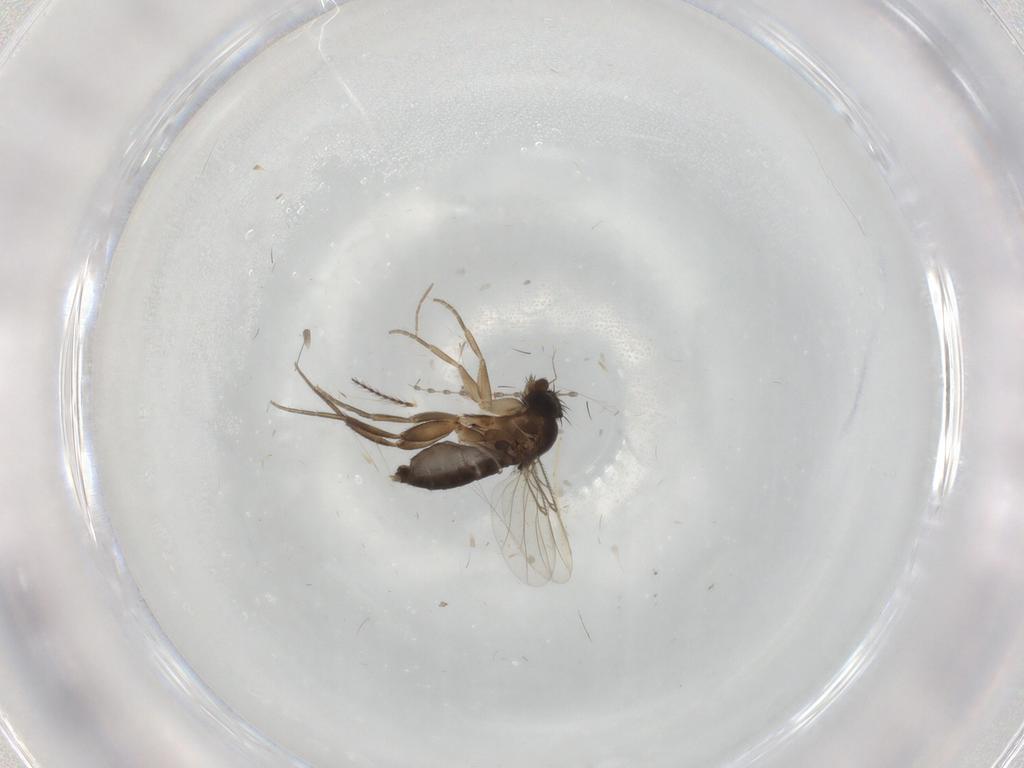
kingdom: Animalia
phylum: Arthropoda
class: Insecta
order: Diptera
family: Phoridae
